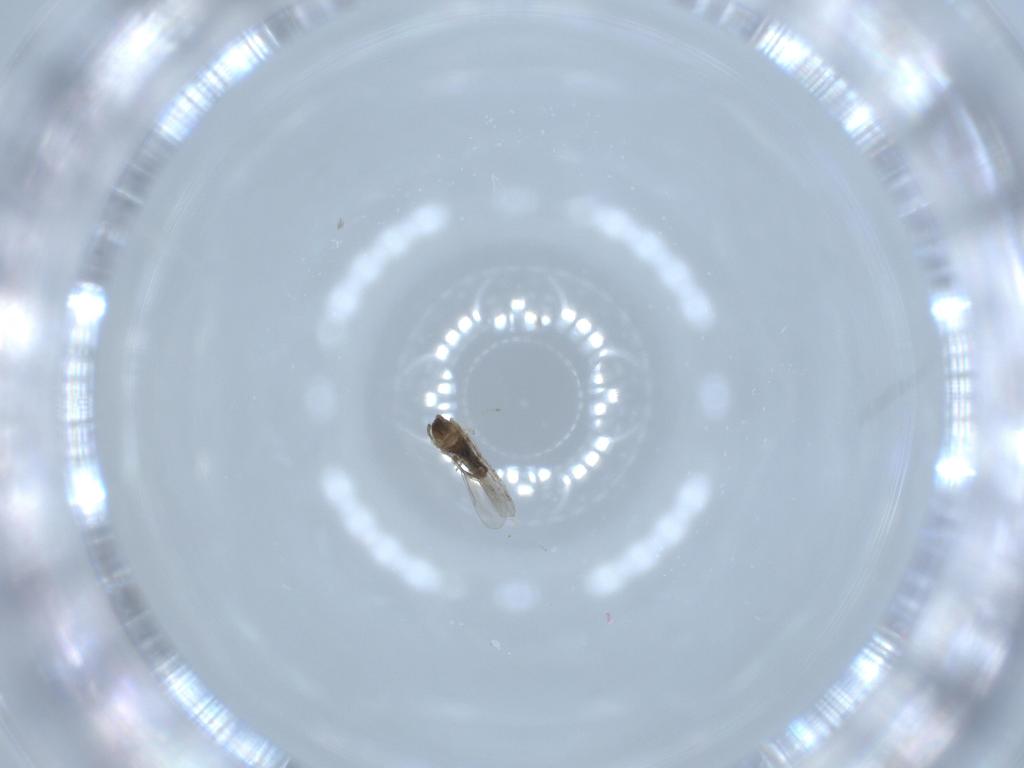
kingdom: Animalia
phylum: Arthropoda
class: Insecta
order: Diptera
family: Cecidomyiidae
